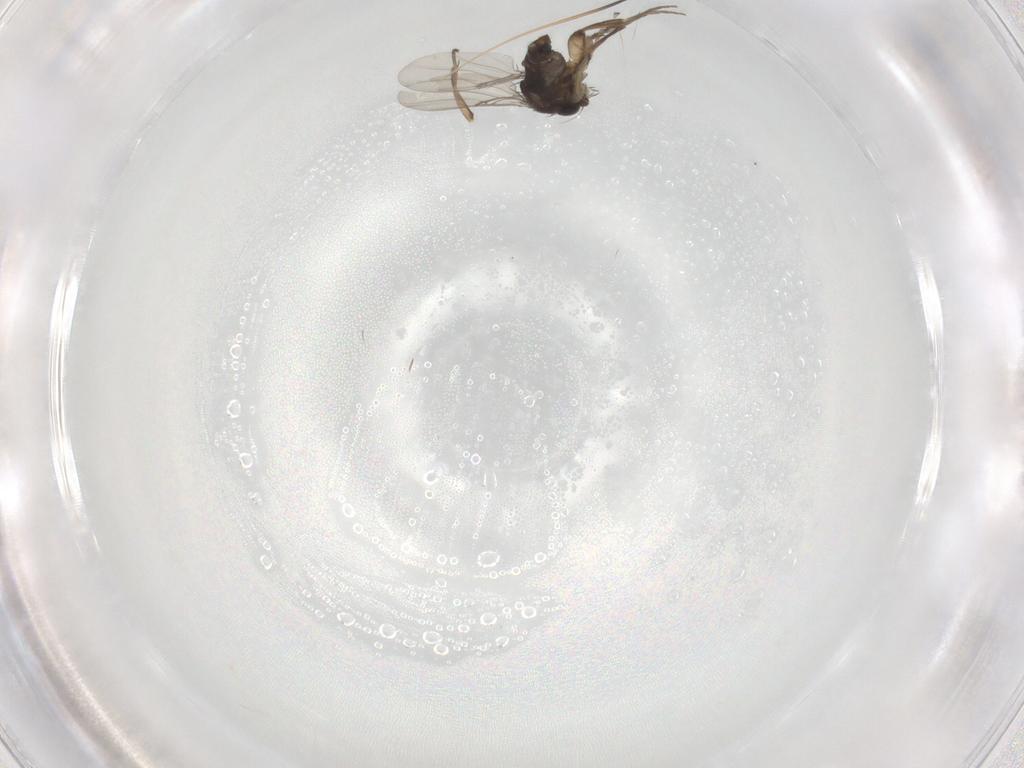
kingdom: Animalia
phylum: Arthropoda
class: Insecta
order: Diptera
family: Phoridae
